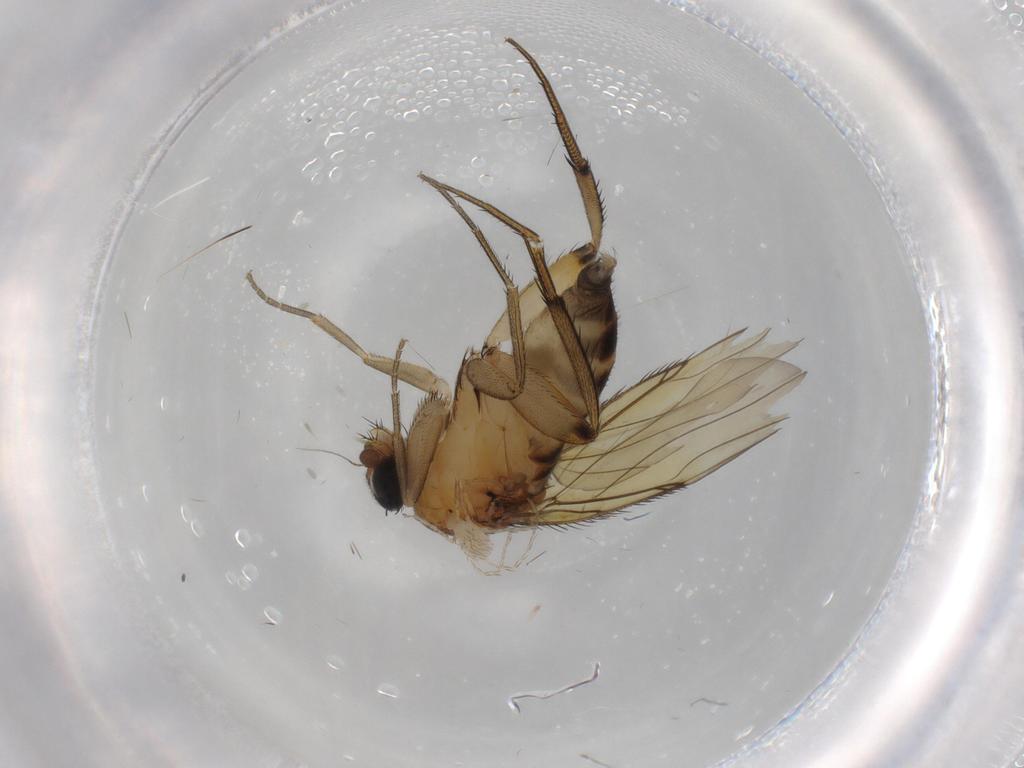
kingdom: Animalia
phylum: Arthropoda
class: Insecta
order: Diptera
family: Phoridae
